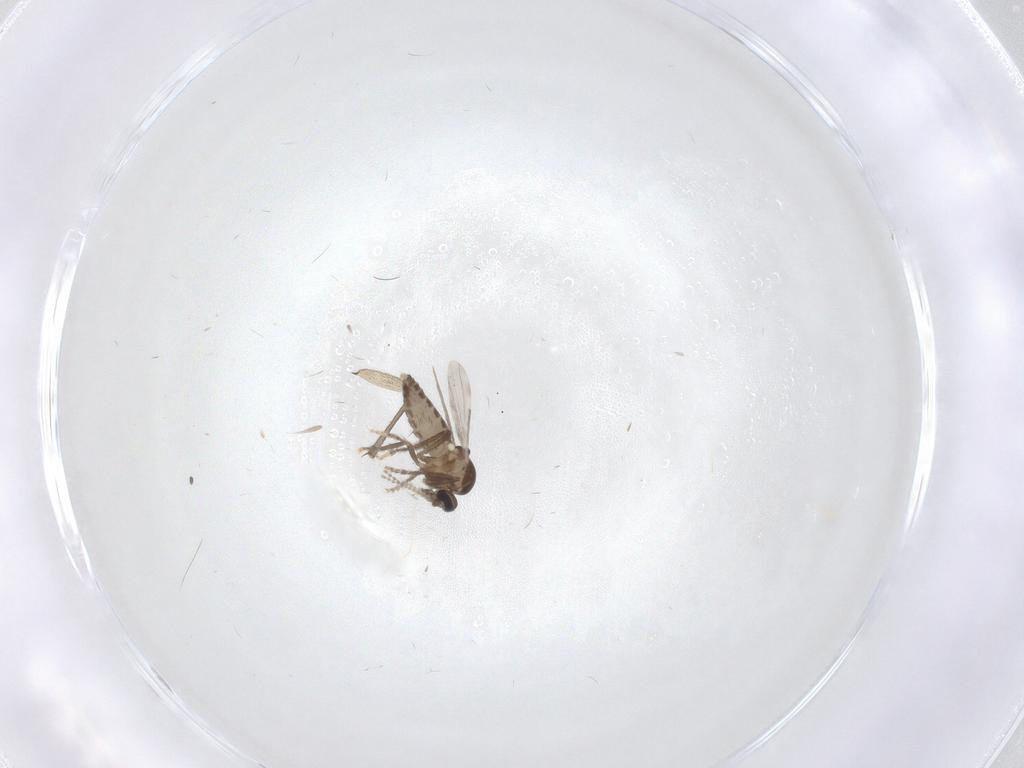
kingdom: Animalia
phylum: Arthropoda
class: Insecta
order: Diptera
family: Ceratopogonidae
